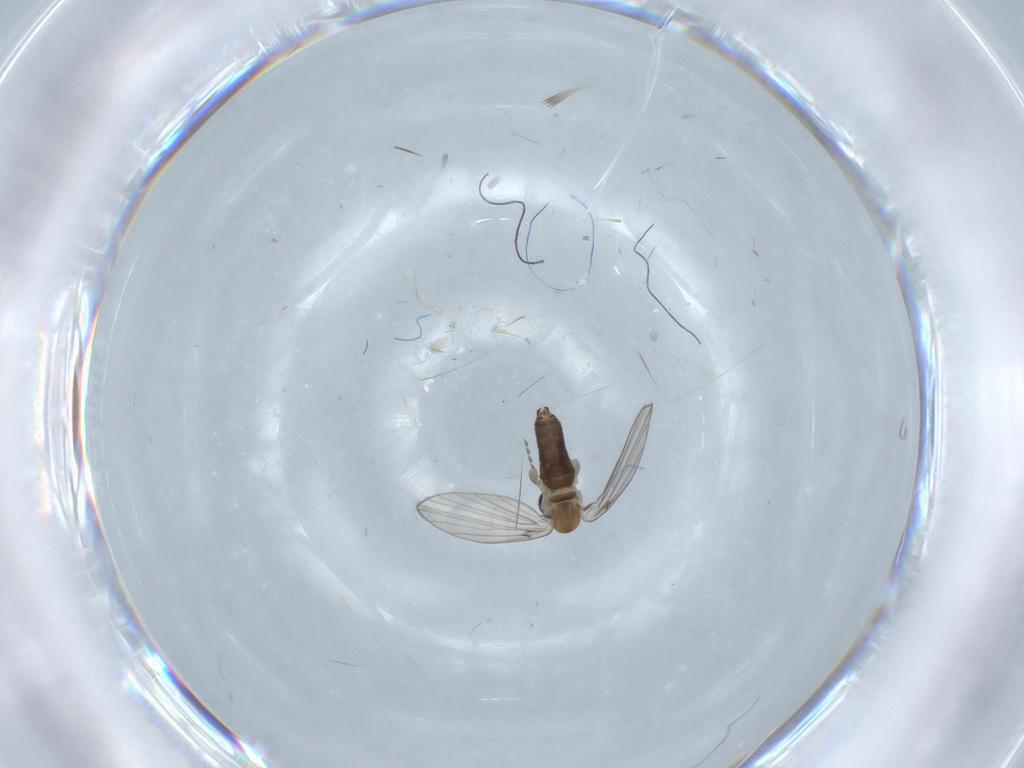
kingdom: Animalia
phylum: Arthropoda
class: Insecta
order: Diptera
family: Psychodidae
